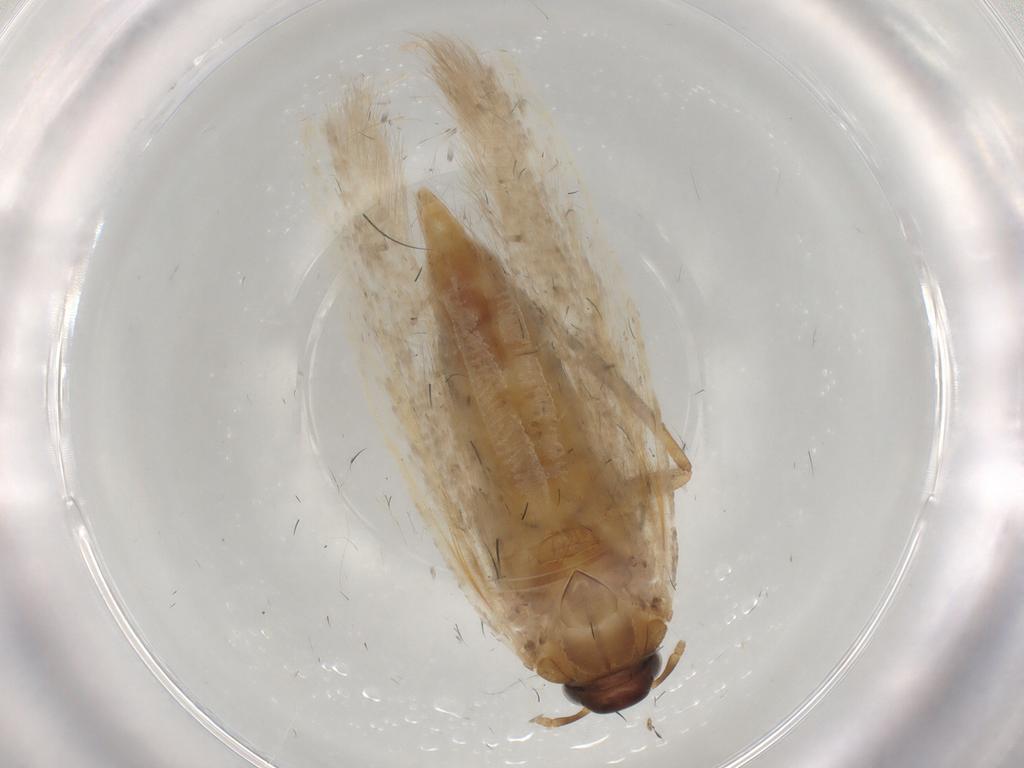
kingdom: Animalia
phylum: Arthropoda
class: Insecta
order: Lepidoptera
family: Gelechiidae
